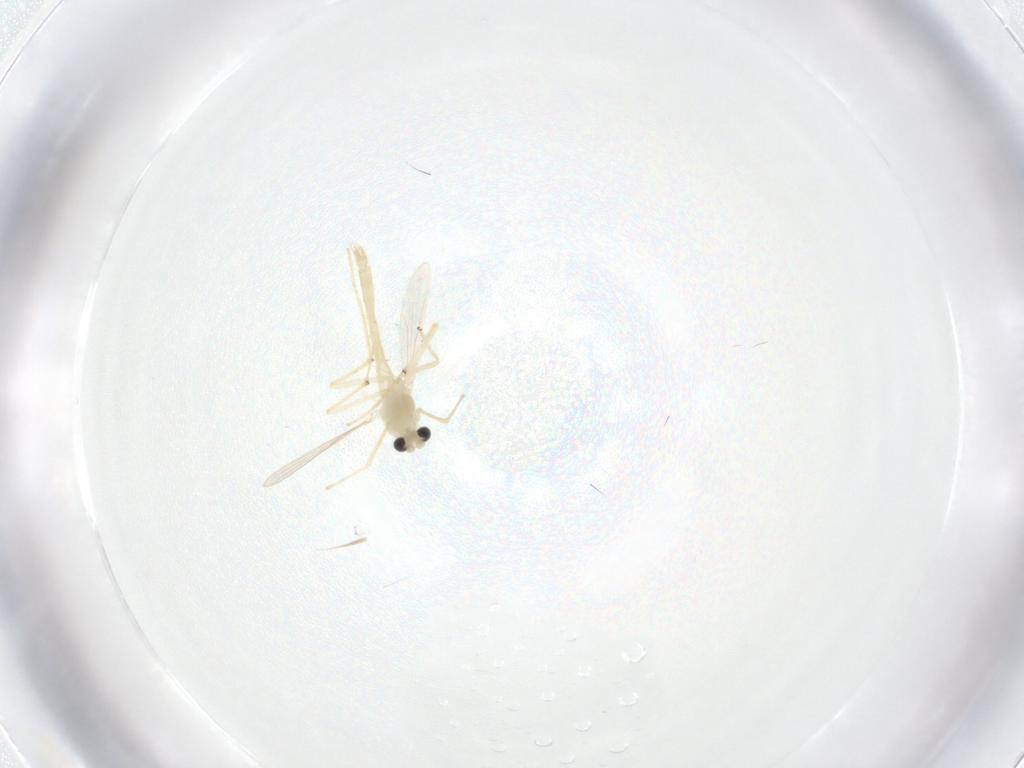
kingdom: Animalia
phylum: Arthropoda
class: Insecta
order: Diptera
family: Chironomidae
